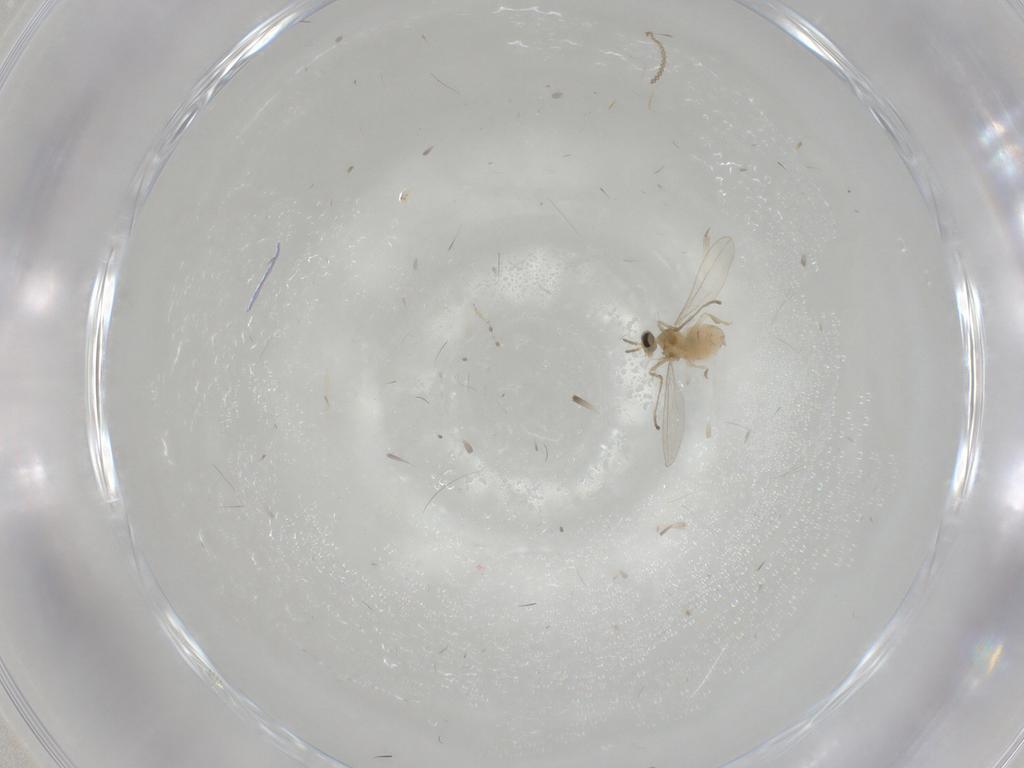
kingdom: Animalia
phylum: Arthropoda
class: Insecta
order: Diptera
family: Cecidomyiidae
